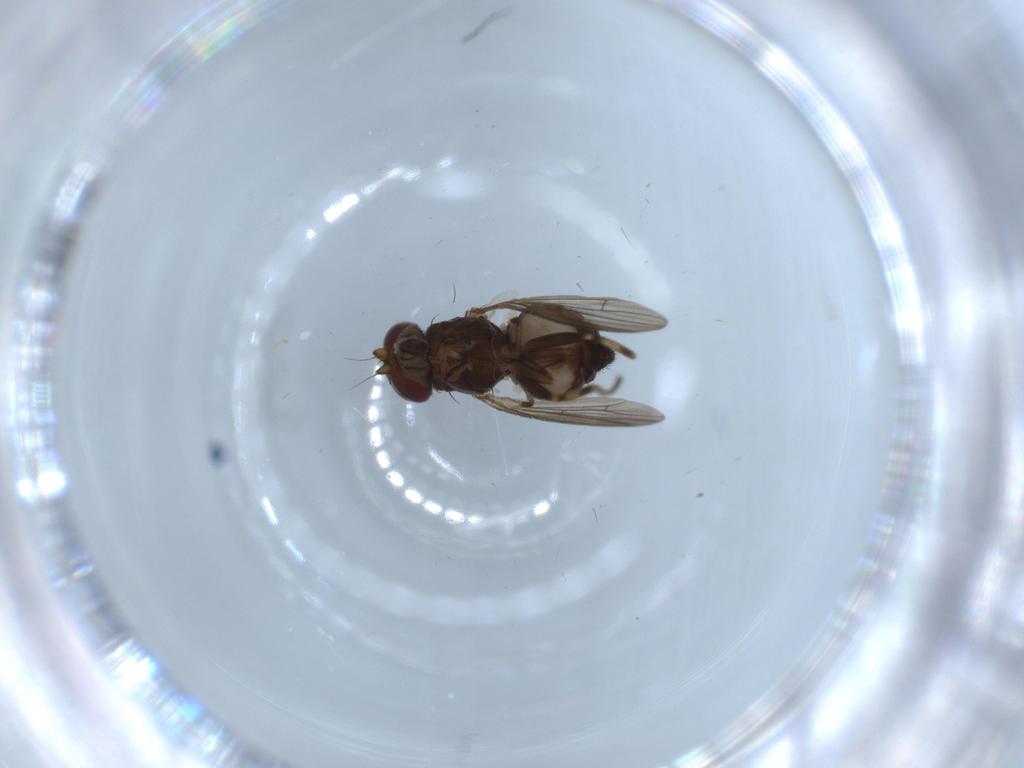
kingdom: Animalia
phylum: Arthropoda
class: Insecta
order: Diptera
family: Heleomyzidae
